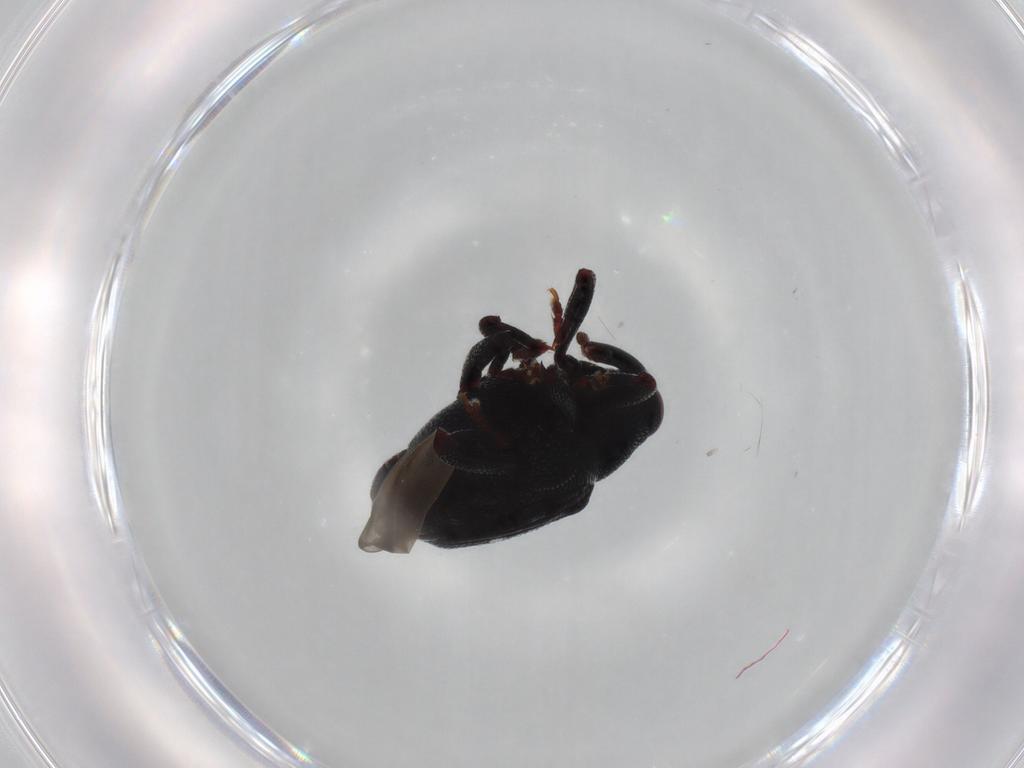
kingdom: Animalia
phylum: Arthropoda
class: Insecta
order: Coleoptera
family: Curculionidae
